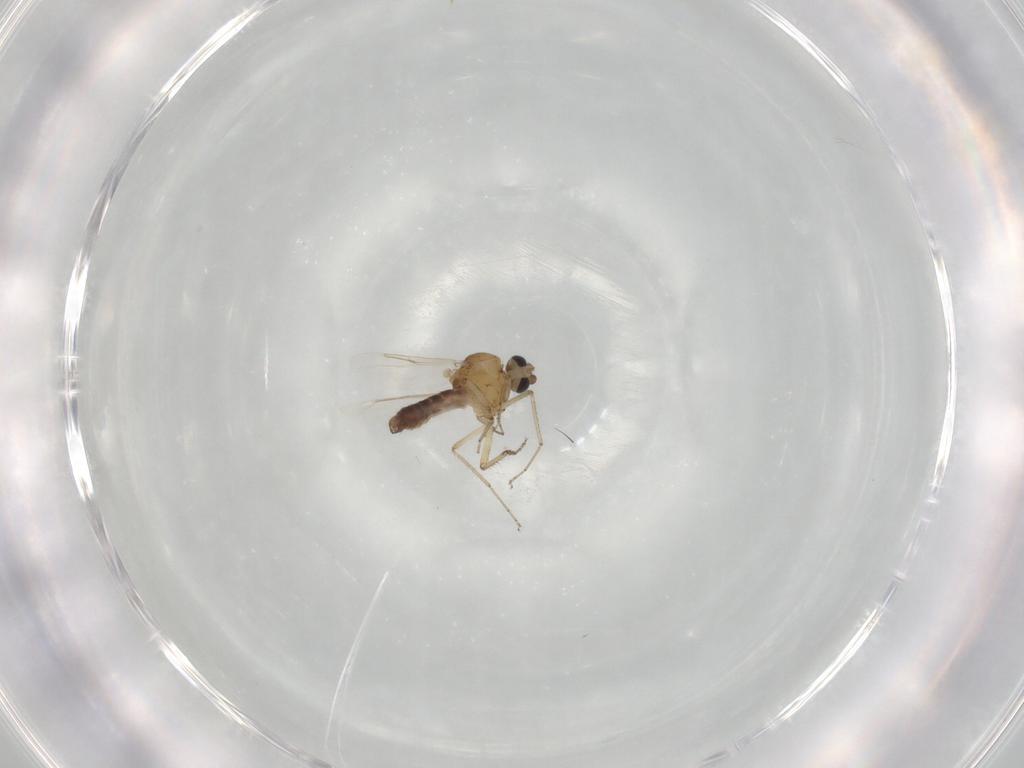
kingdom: Animalia
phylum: Arthropoda
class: Insecta
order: Diptera
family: Ceratopogonidae
